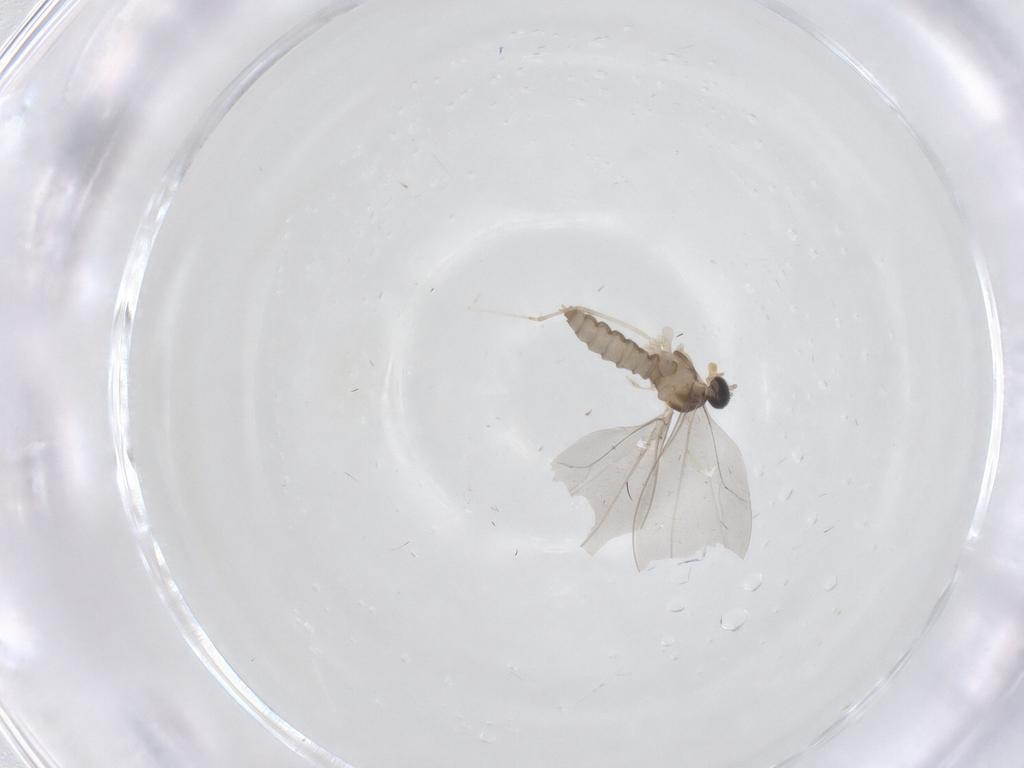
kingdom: Animalia
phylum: Arthropoda
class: Insecta
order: Diptera
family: Cecidomyiidae
